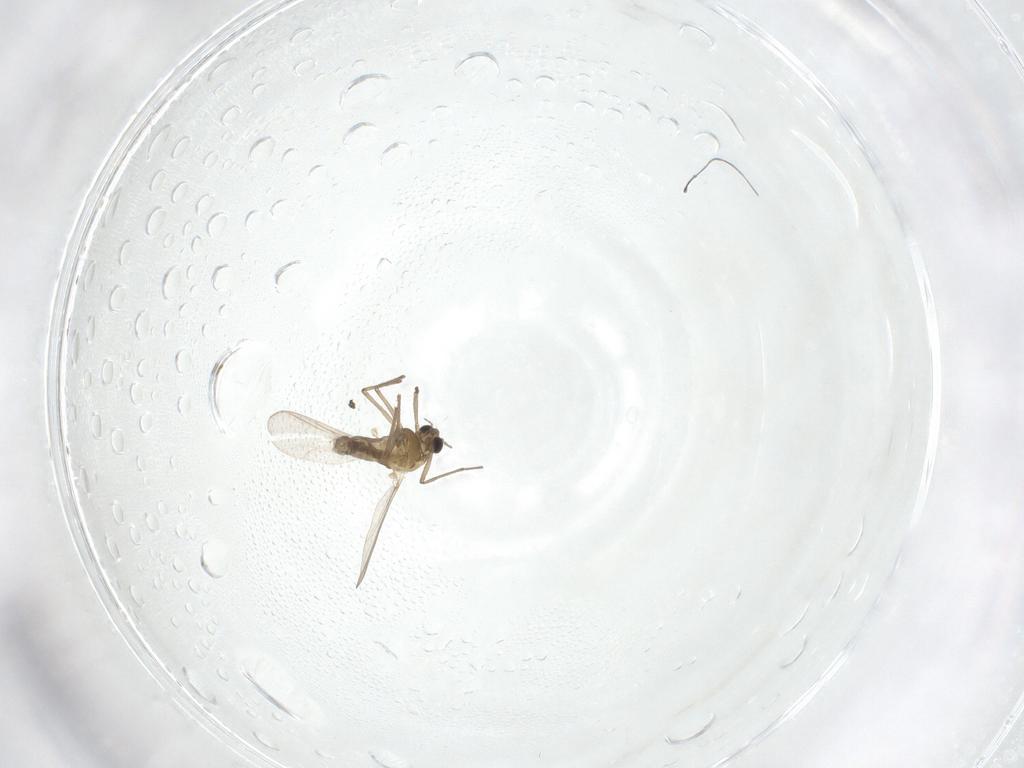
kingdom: Animalia
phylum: Arthropoda
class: Insecta
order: Diptera
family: Chironomidae
